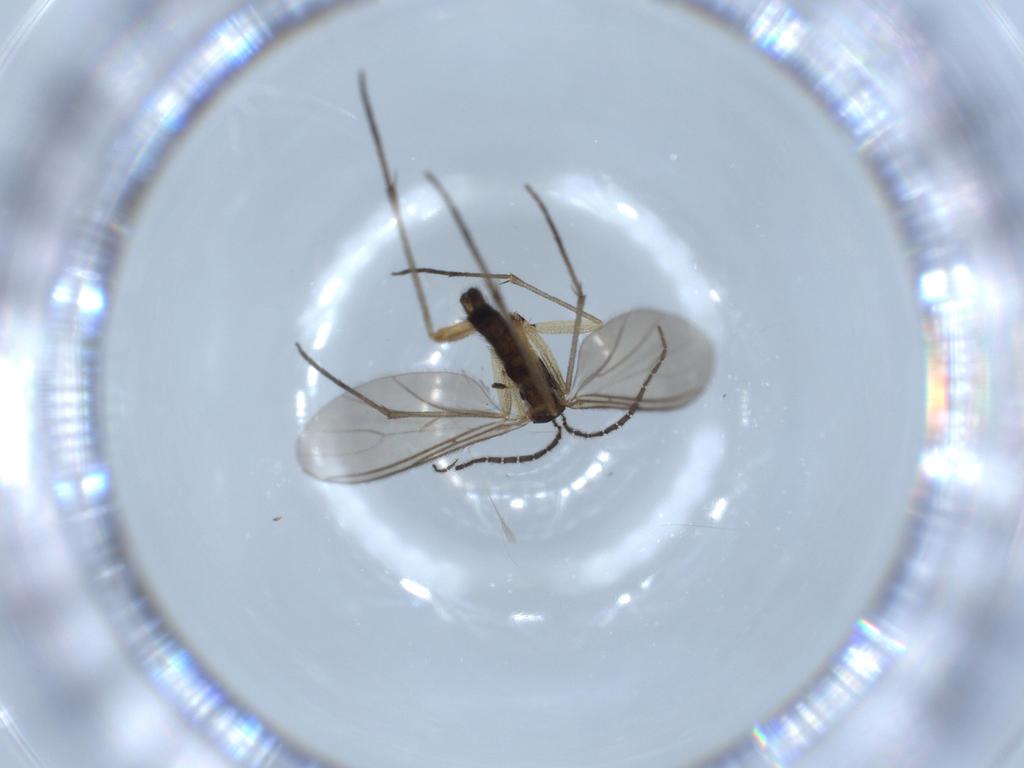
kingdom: Animalia
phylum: Arthropoda
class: Insecta
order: Diptera
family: Sciaridae
